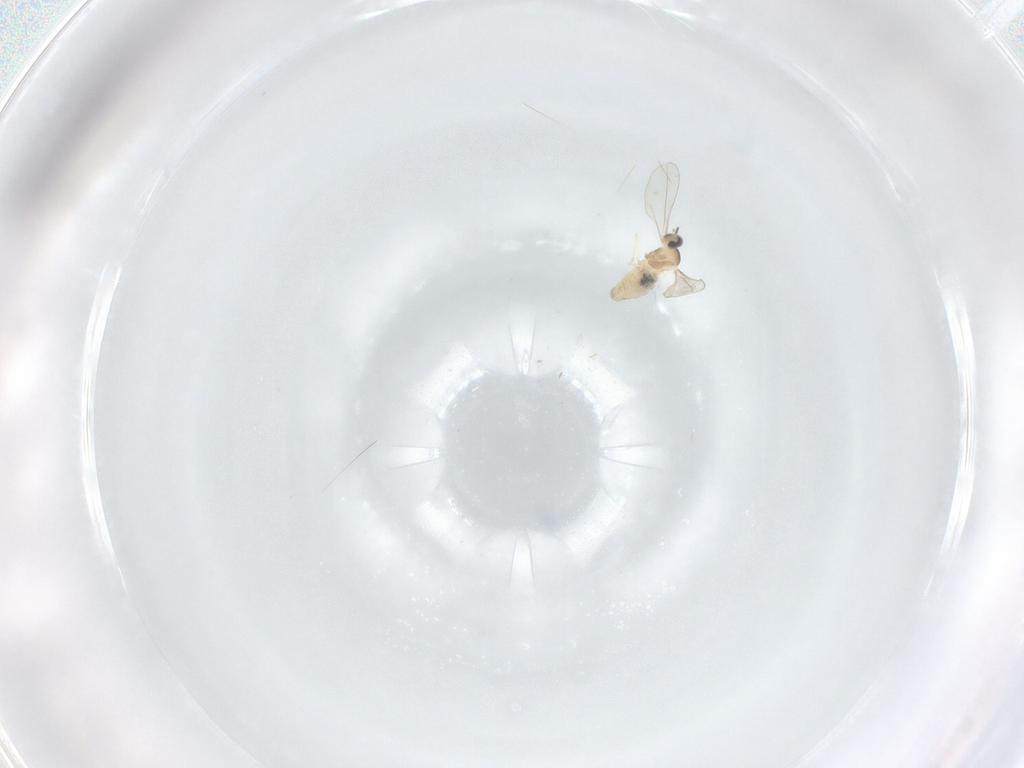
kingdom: Animalia
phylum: Arthropoda
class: Insecta
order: Diptera
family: Cecidomyiidae
